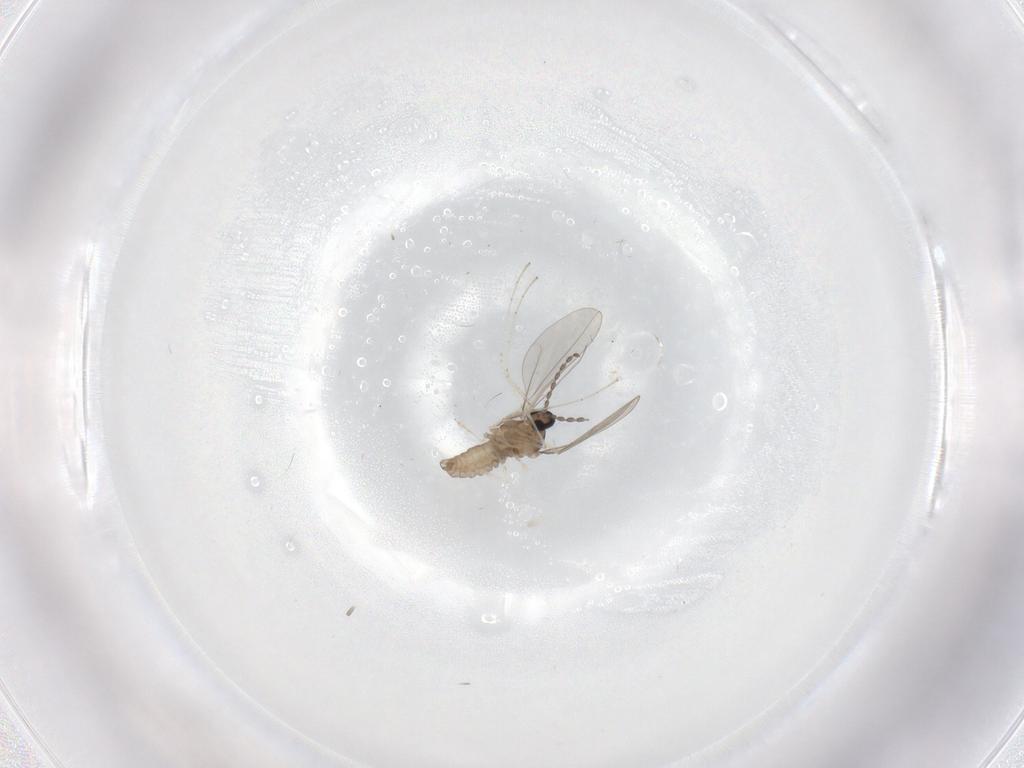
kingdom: Animalia
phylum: Arthropoda
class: Insecta
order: Diptera
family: Cecidomyiidae
